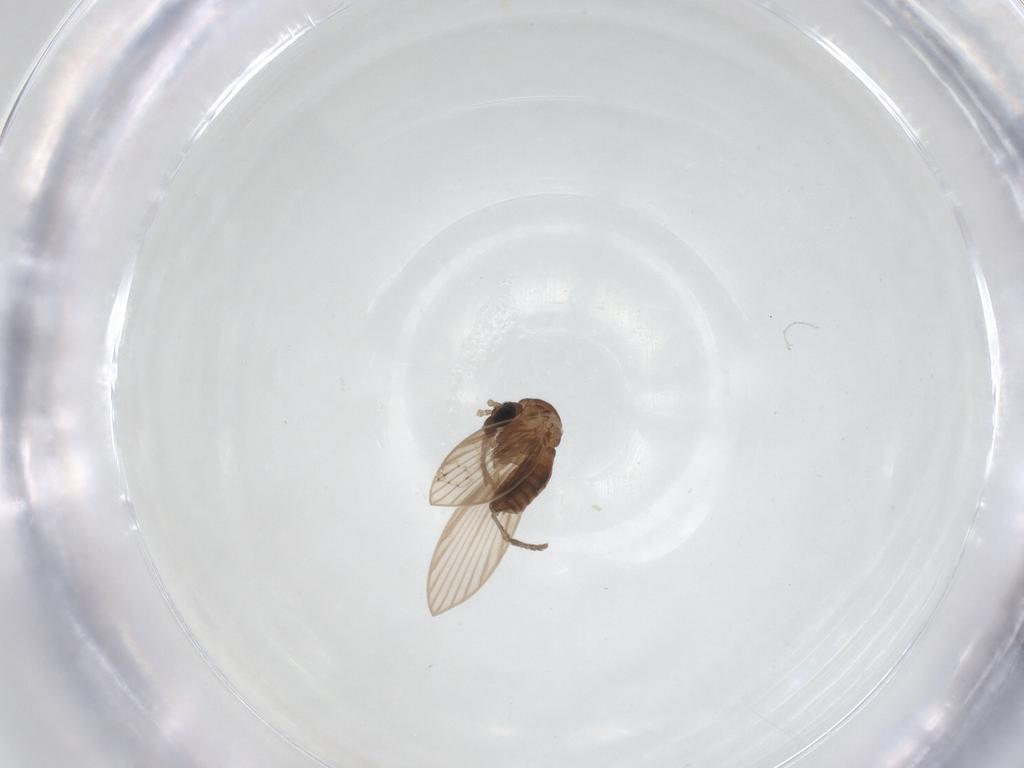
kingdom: Animalia
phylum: Arthropoda
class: Insecta
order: Diptera
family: Psychodidae
